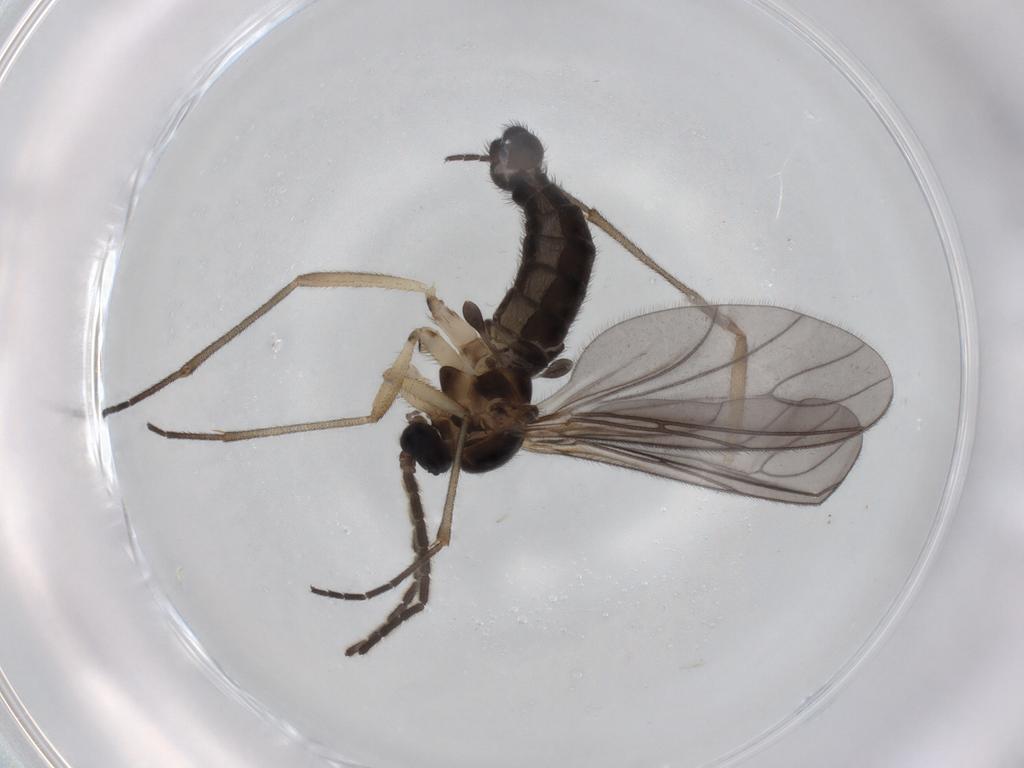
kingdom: Animalia
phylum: Arthropoda
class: Insecta
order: Diptera
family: Sciaridae
